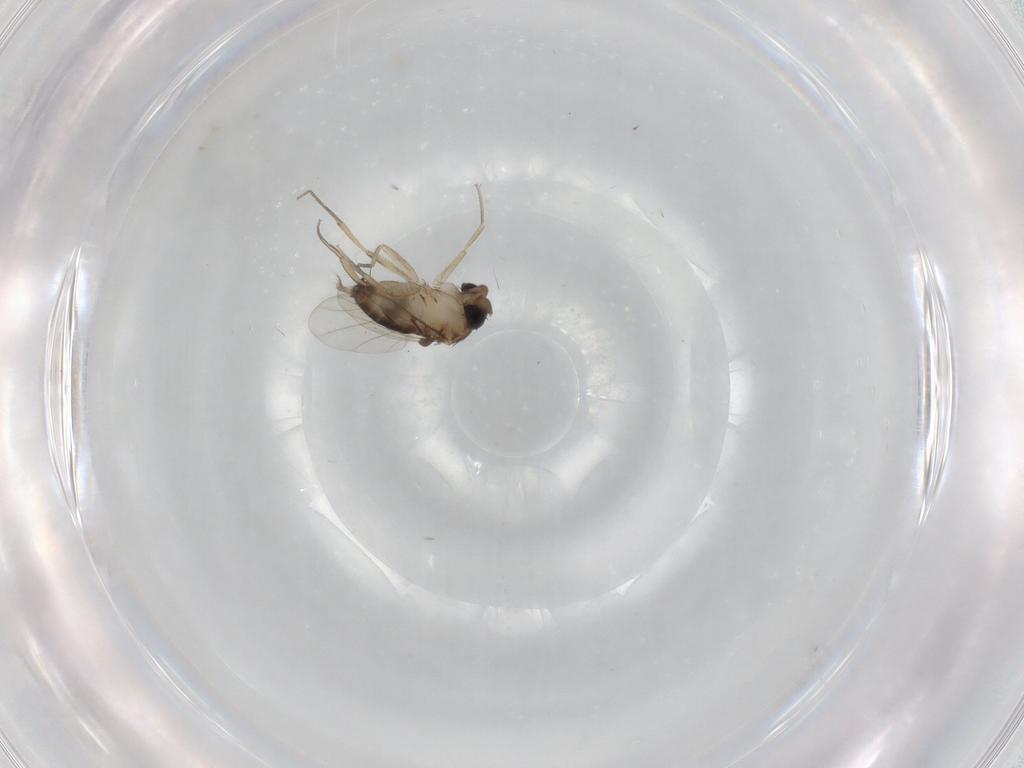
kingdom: Animalia
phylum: Arthropoda
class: Insecta
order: Diptera
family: Phoridae
